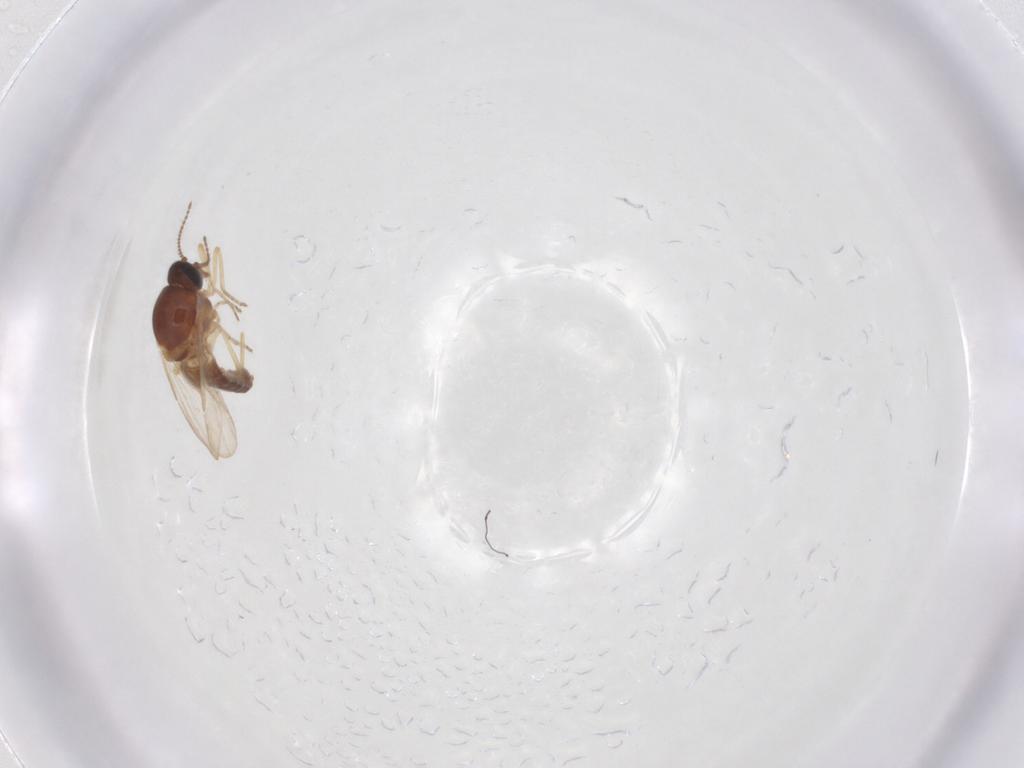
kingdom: Animalia
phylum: Arthropoda
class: Insecta
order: Diptera
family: Ceratopogonidae
